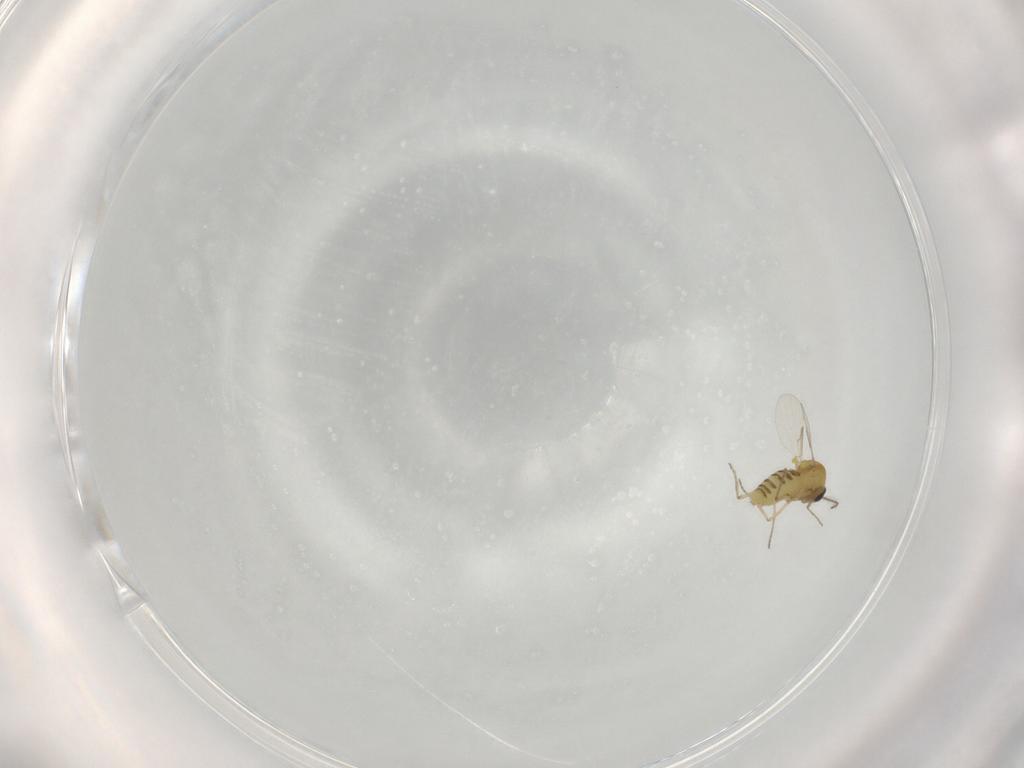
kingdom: Animalia
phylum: Arthropoda
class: Insecta
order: Diptera
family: Ceratopogonidae
